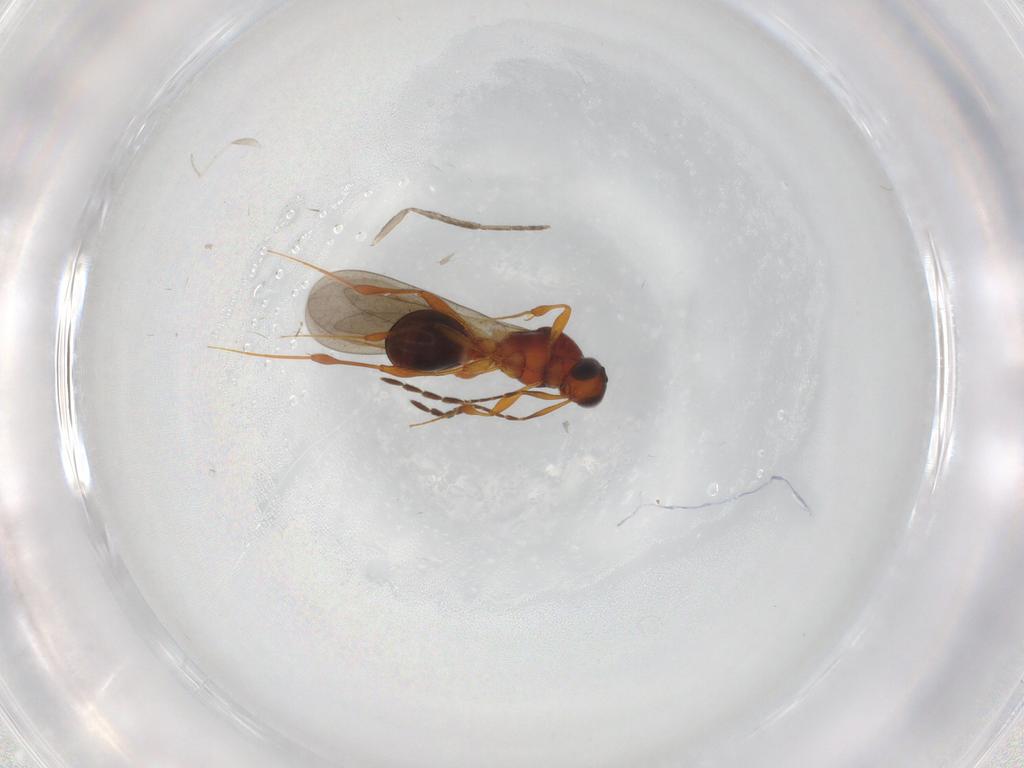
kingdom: Animalia
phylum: Arthropoda
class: Insecta
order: Hymenoptera
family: Platygastridae
